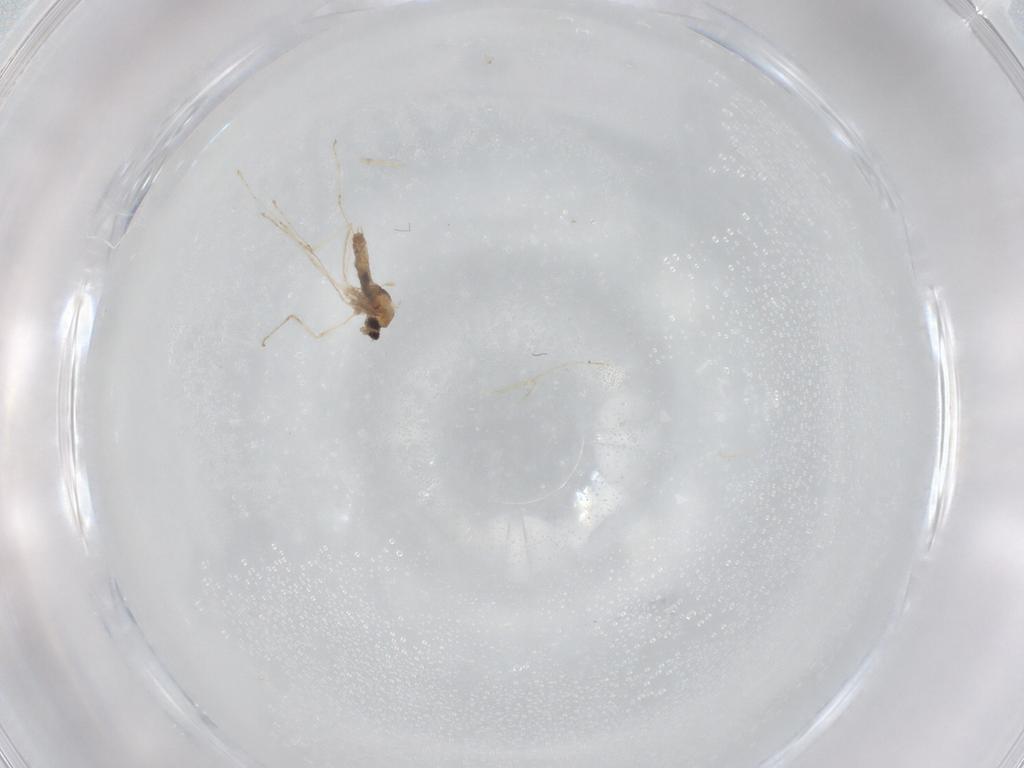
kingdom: Animalia
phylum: Arthropoda
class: Insecta
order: Diptera
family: Cecidomyiidae
